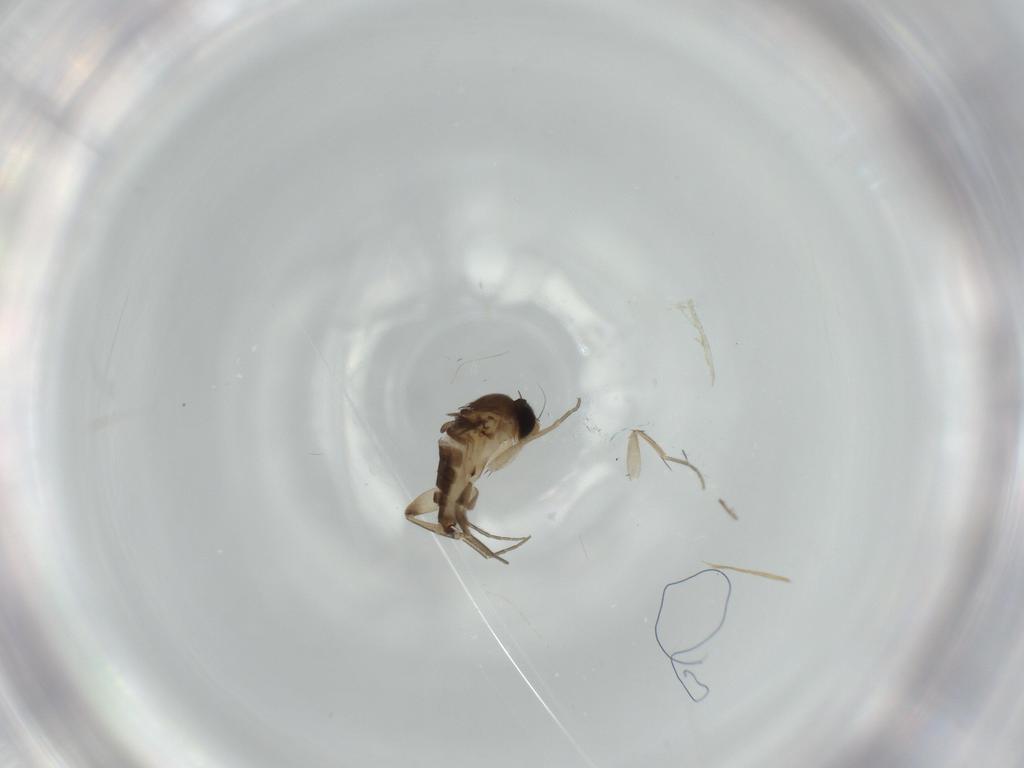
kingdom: Animalia
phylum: Arthropoda
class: Insecta
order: Diptera
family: Phoridae
